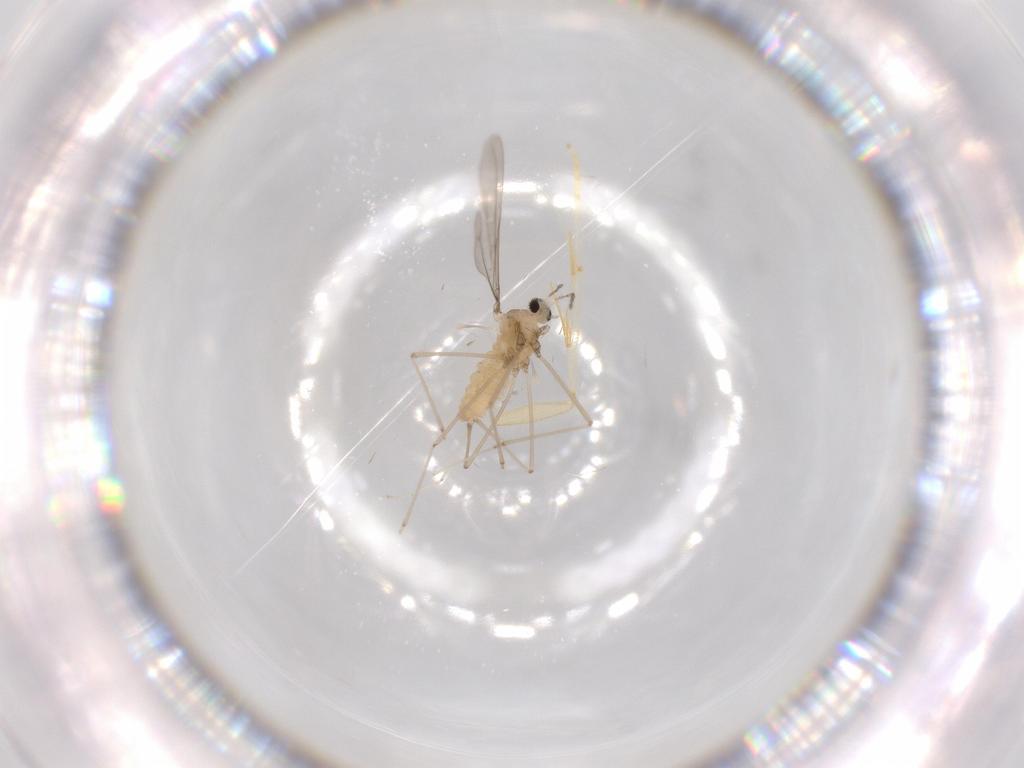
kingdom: Animalia
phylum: Arthropoda
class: Insecta
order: Diptera
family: Cecidomyiidae
